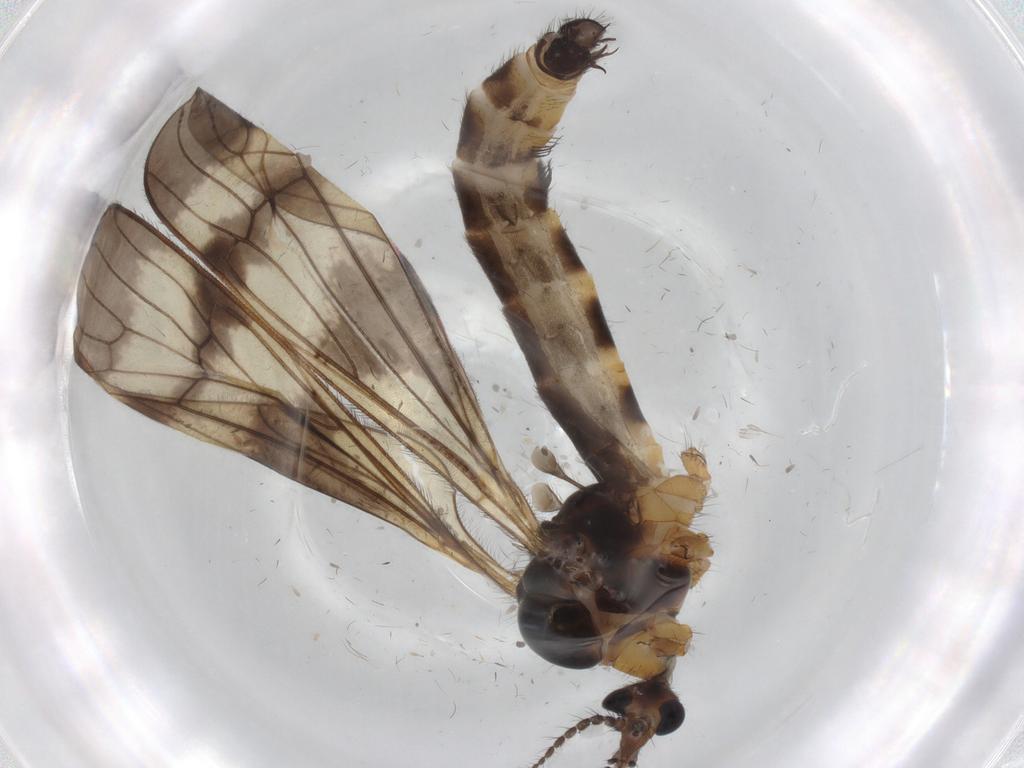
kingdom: Animalia
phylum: Arthropoda
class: Insecta
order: Diptera
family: Limoniidae
